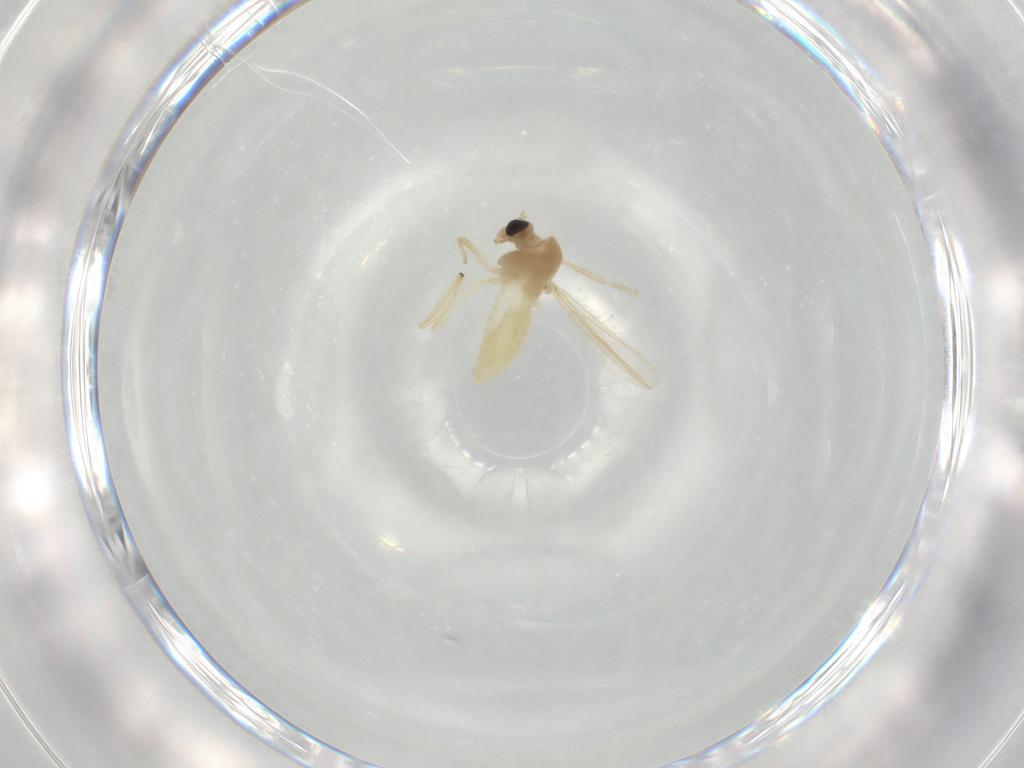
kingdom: Animalia
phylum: Arthropoda
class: Insecta
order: Diptera
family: Chironomidae
